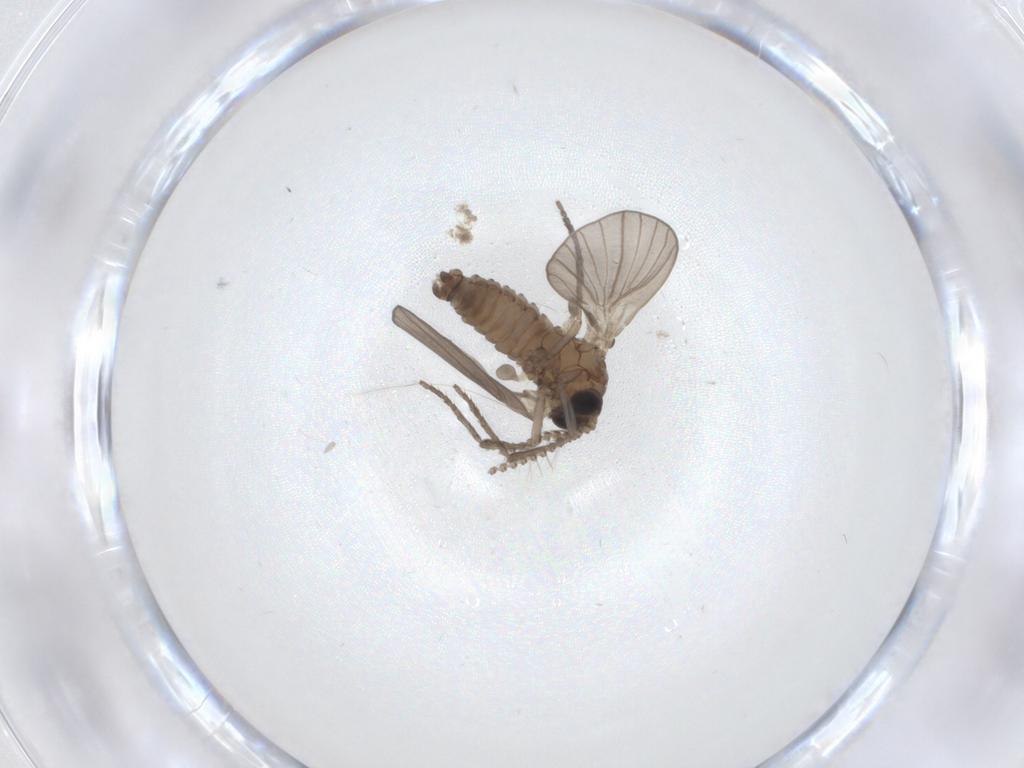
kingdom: Animalia
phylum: Arthropoda
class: Insecta
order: Diptera
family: Psychodidae
